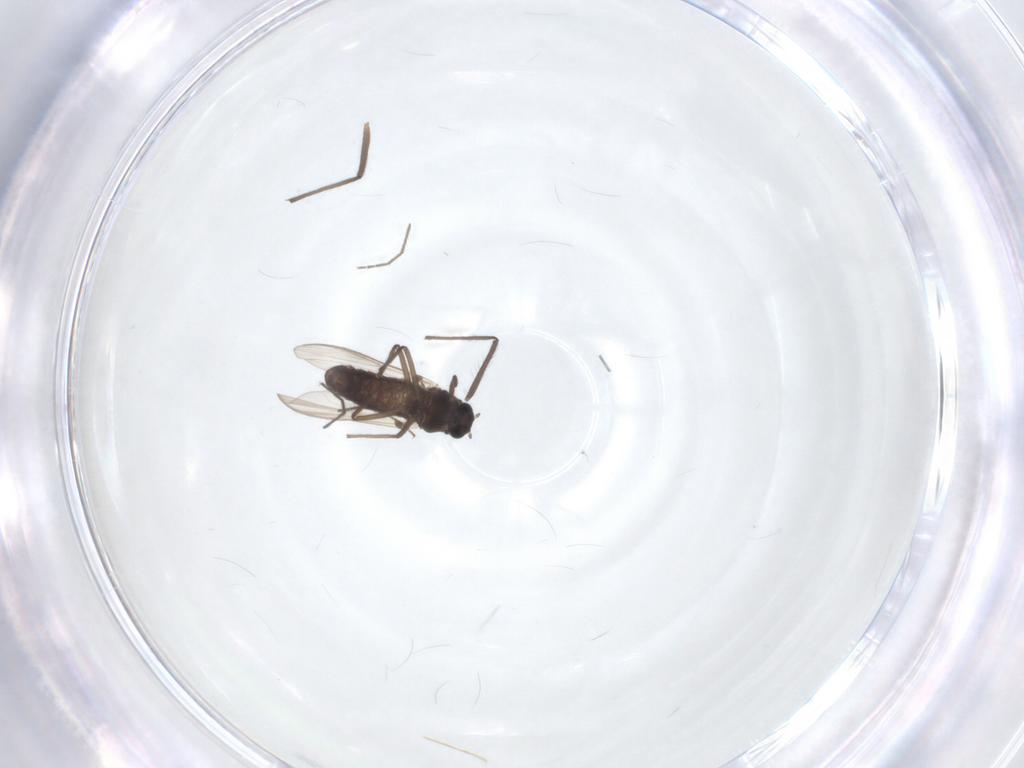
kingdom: Animalia
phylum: Arthropoda
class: Insecta
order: Diptera
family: Chironomidae
